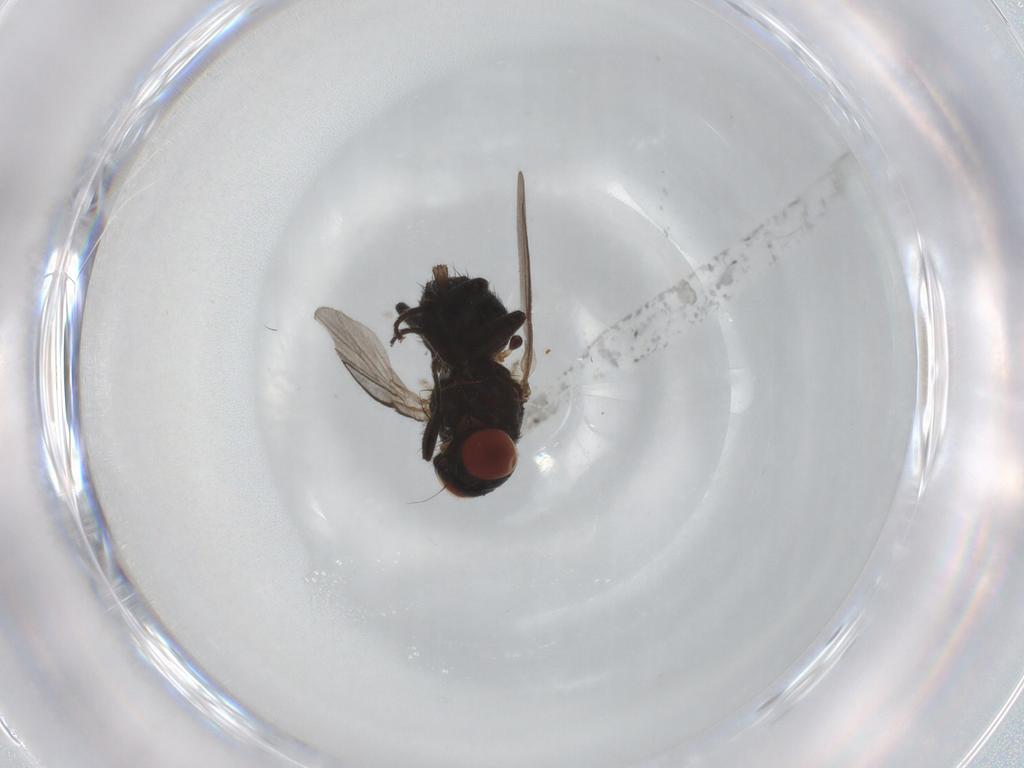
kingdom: Animalia
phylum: Arthropoda
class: Insecta
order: Diptera
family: Agromyzidae
